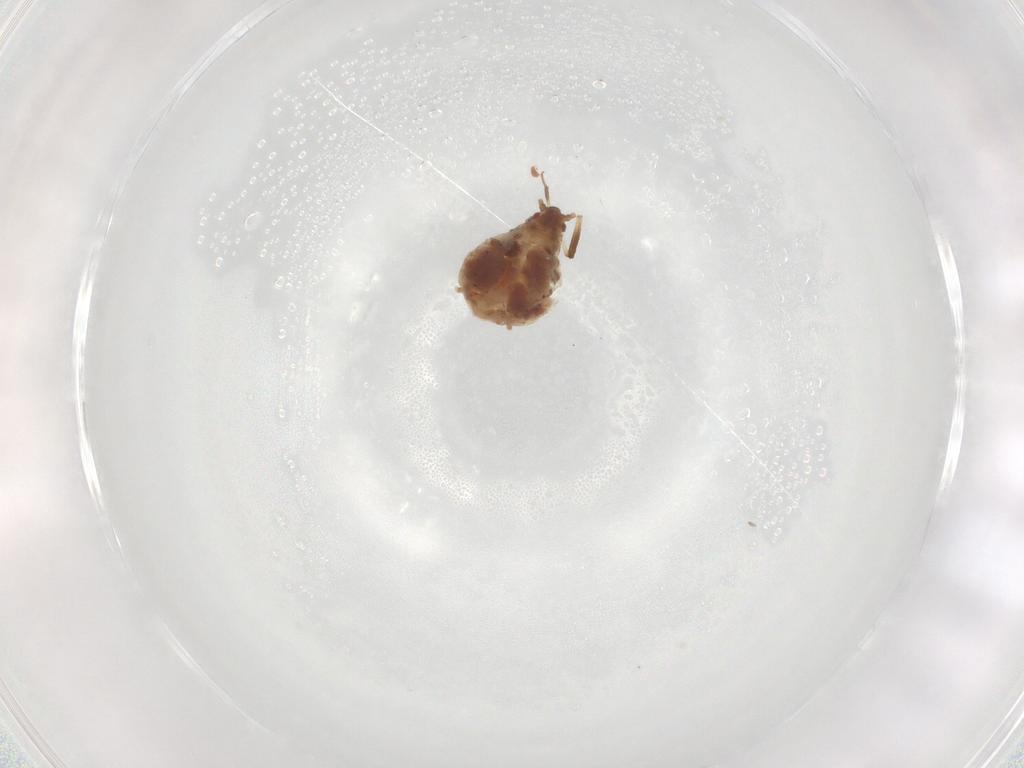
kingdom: Animalia
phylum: Arthropoda
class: Insecta
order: Hemiptera
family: Aphididae
